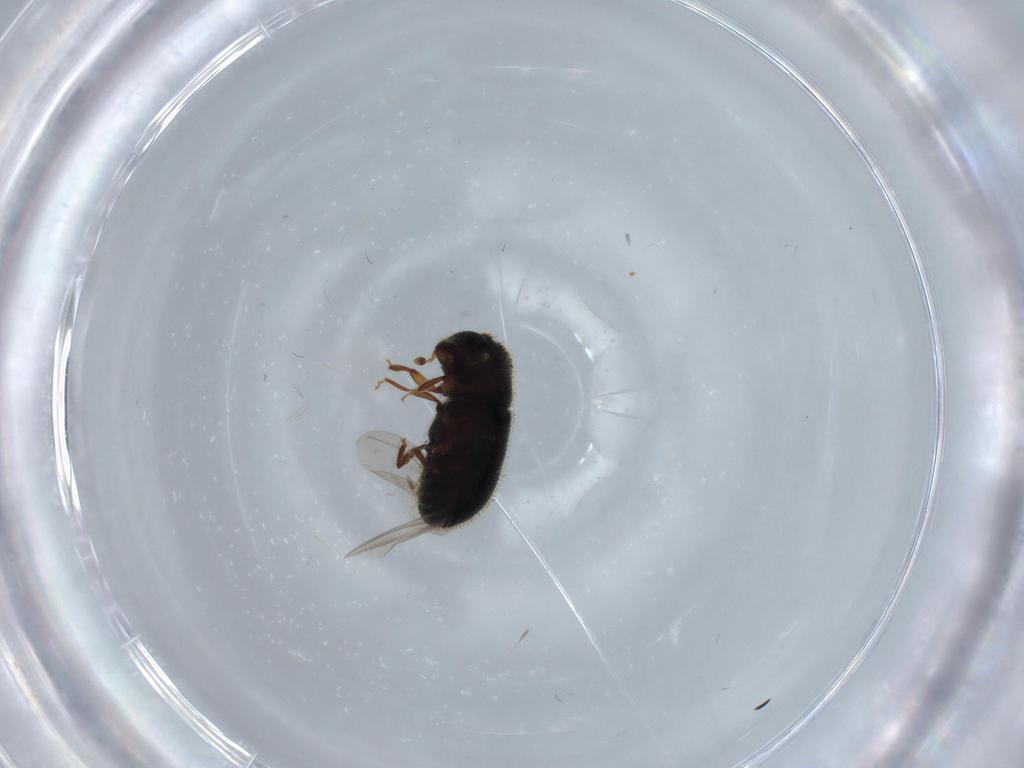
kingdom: Animalia
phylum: Arthropoda
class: Insecta
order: Coleoptera
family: Curculionidae
